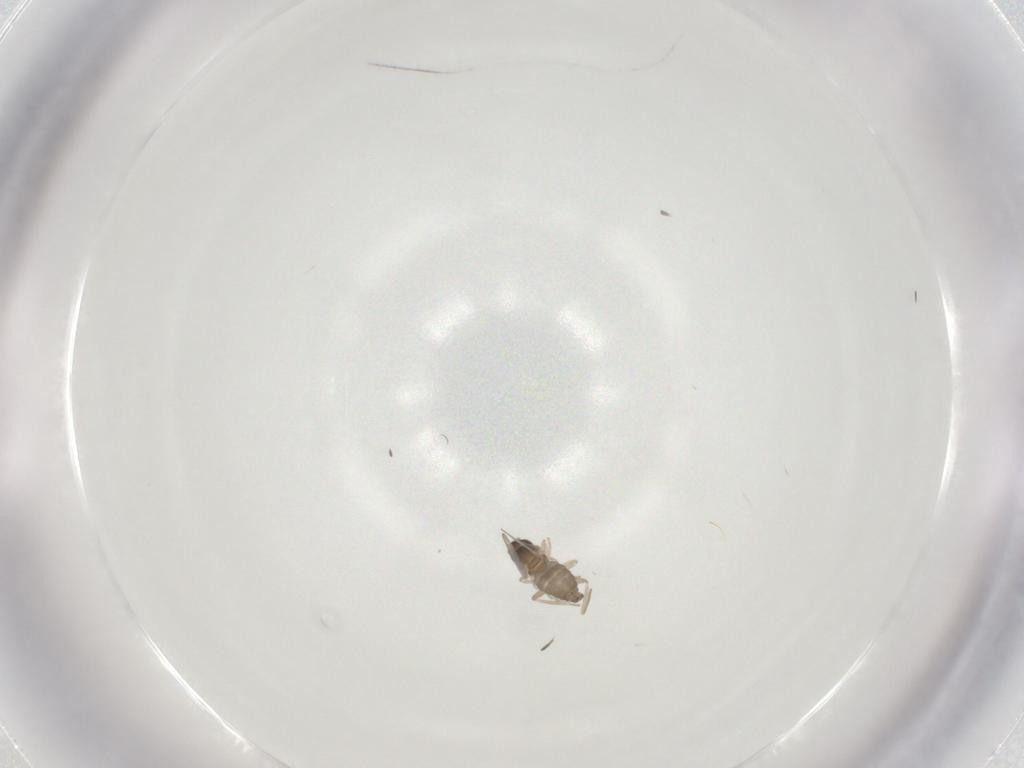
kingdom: Animalia
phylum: Arthropoda
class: Insecta
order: Diptera
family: Cecidomyiidae
